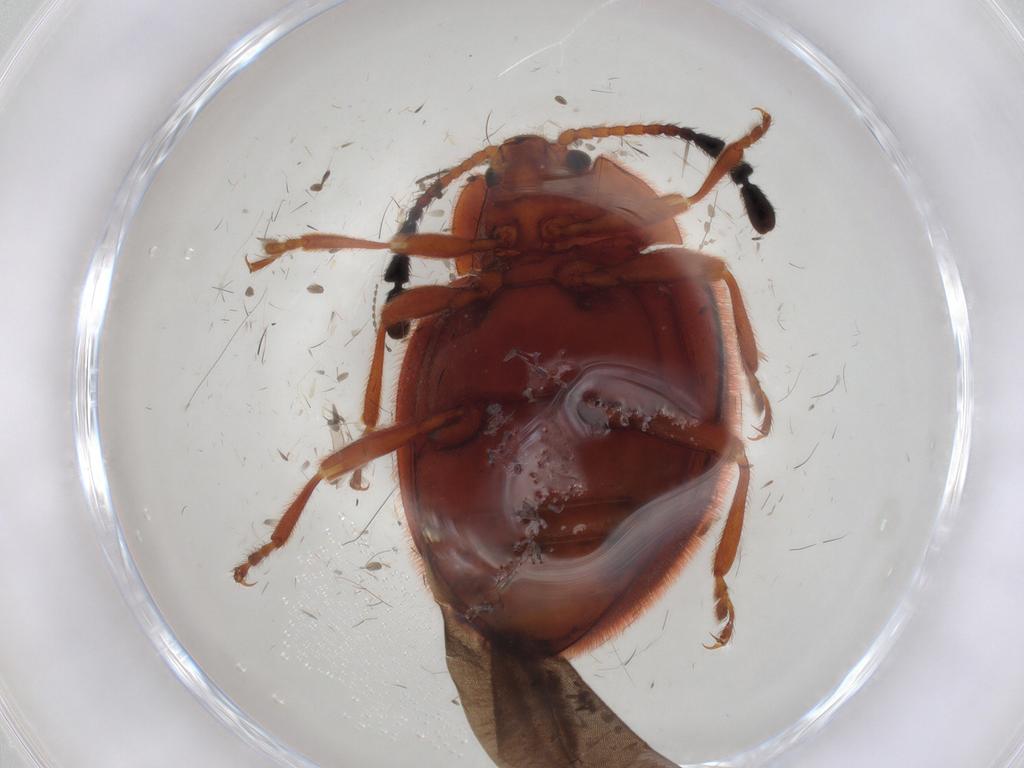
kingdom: Animalia
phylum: Arthropoda
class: Insecta
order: Coleoptera
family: Endomychidae
